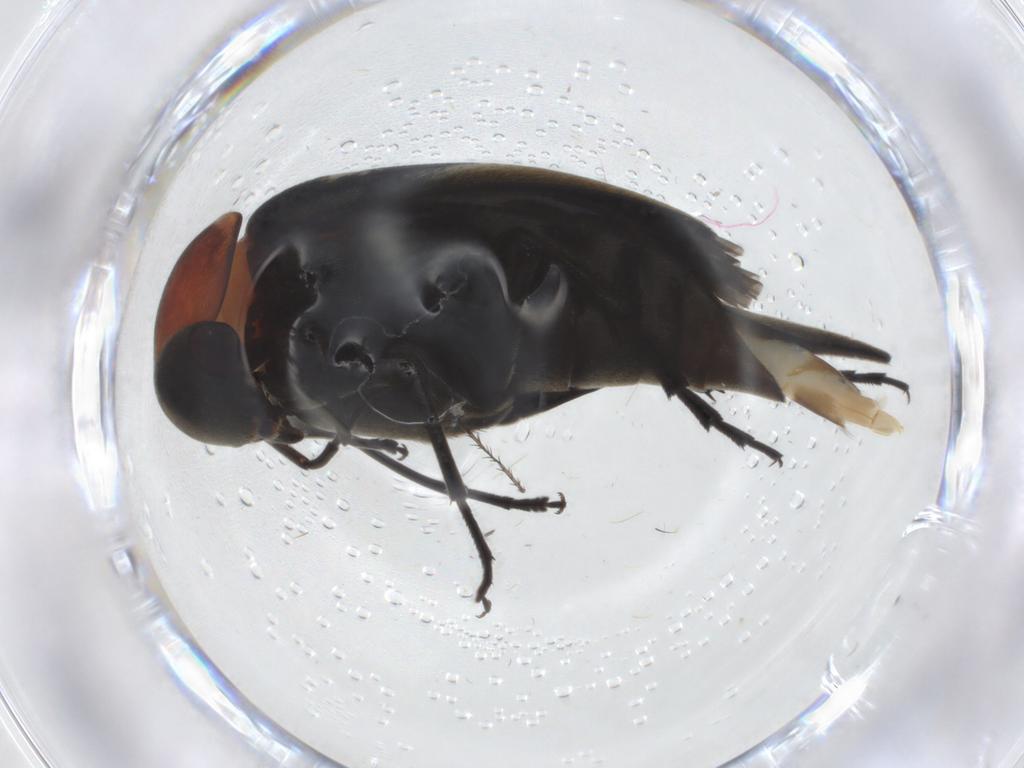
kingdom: Animalia
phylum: Arthropoda
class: Insecta
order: Coleoptera
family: Mordellidae
